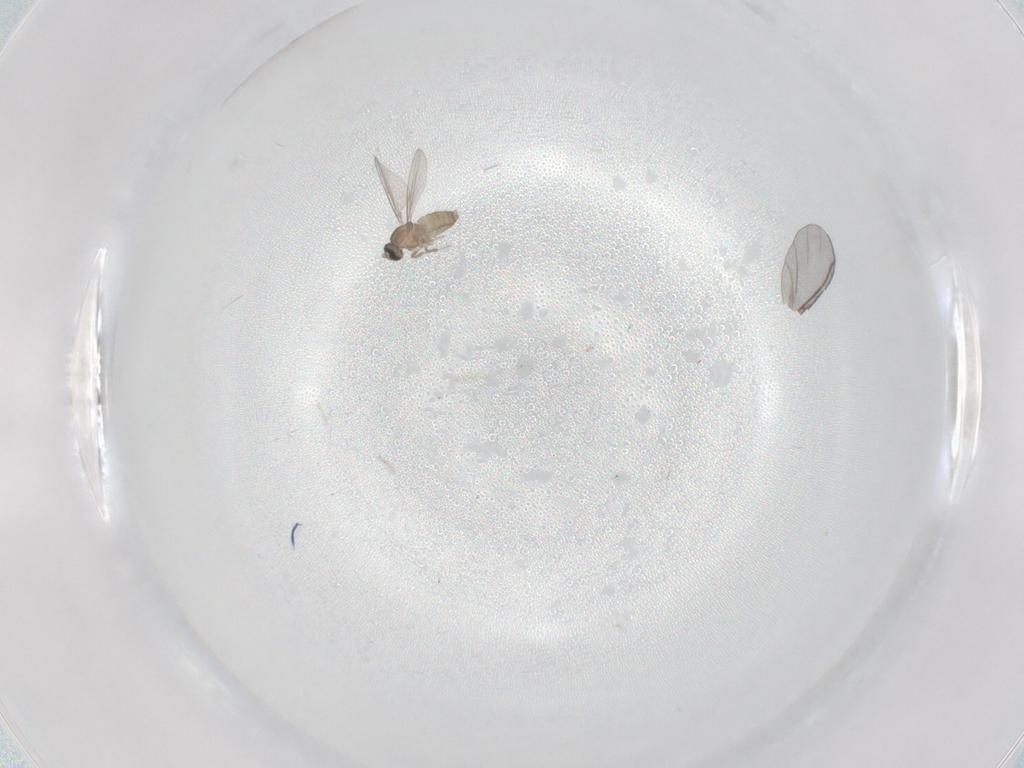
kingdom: Animalia
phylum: Arthropoda
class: Insecta
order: Diptera
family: Cecidomyiidae
